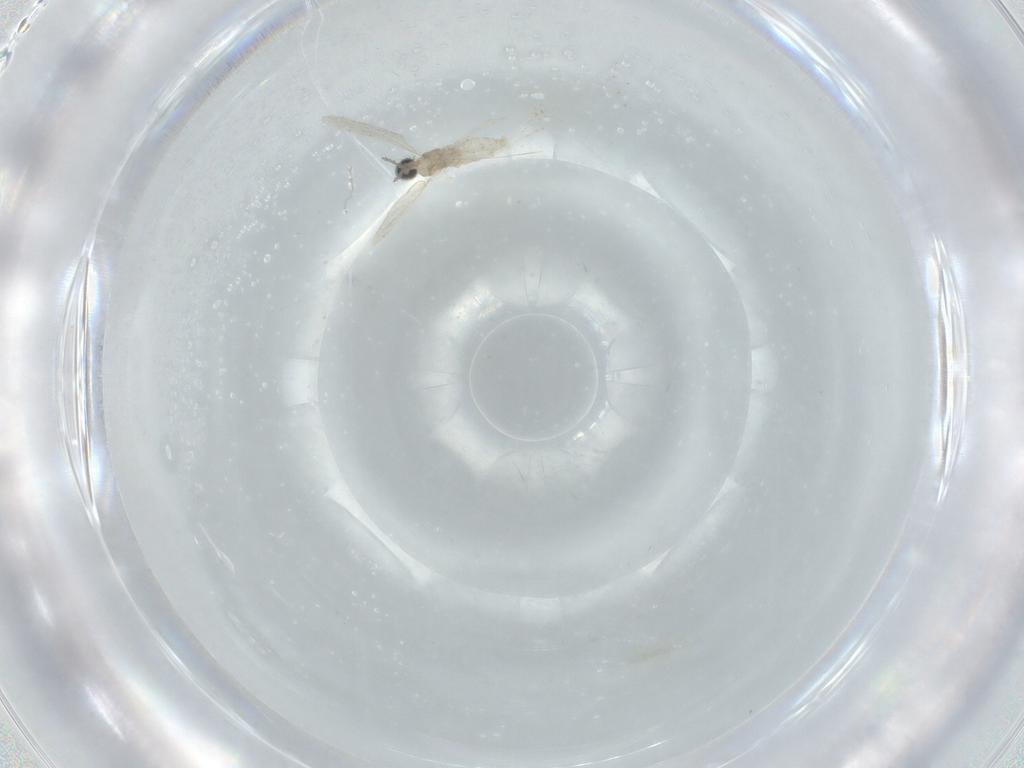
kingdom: Animalia
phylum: Arthropoda
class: Insecta
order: Diptera
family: Cecidomyiidae
